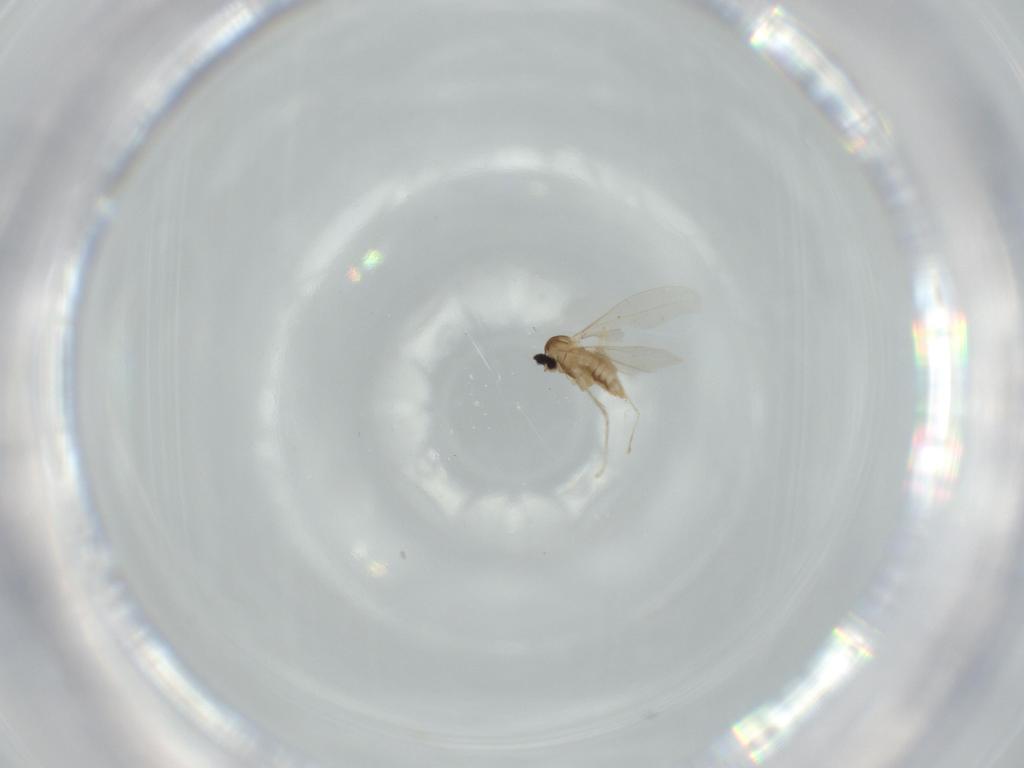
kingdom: Animalia
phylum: Arthropoda
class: Insecta
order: Diptera
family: Cecidomyiidae
